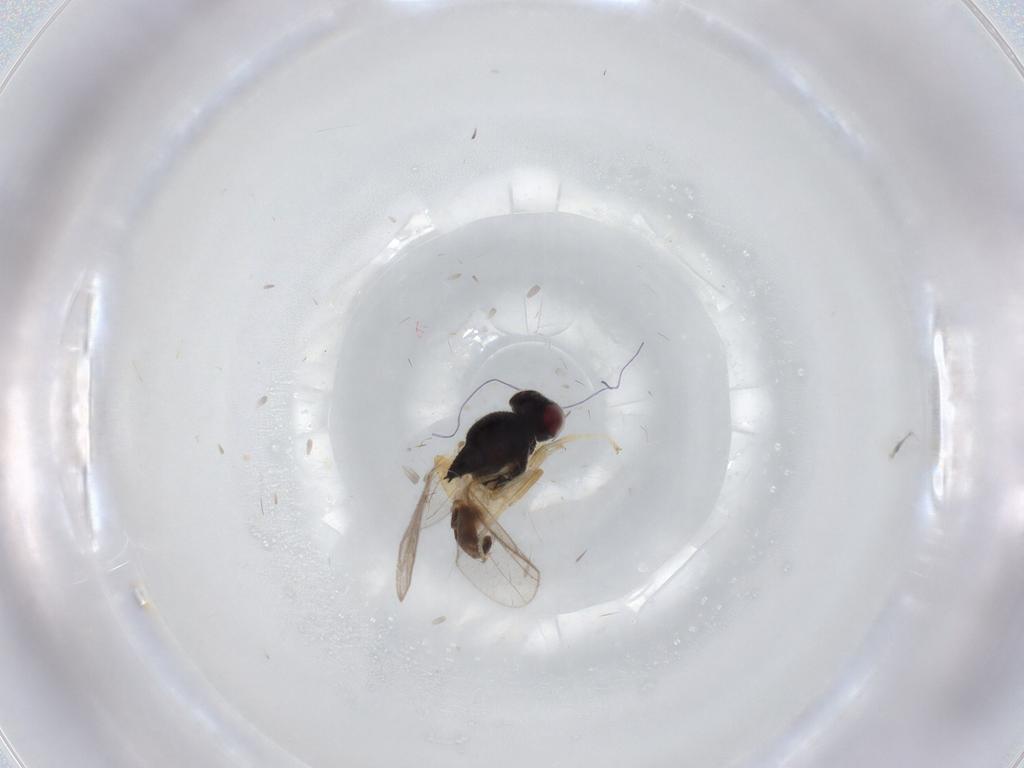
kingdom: Animalia
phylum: Arthropoda
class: Insecta
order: Diptera
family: Chloropidae
